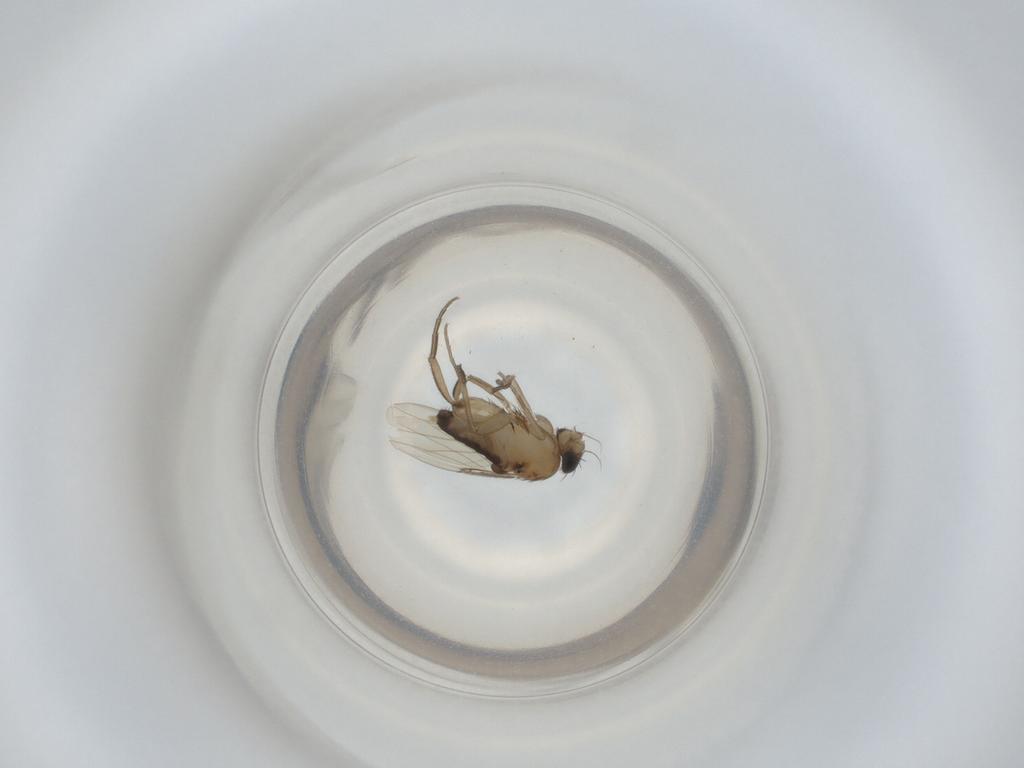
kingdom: Animalia
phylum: Arthropoda
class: Insecta
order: Diptera
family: Phoridae
